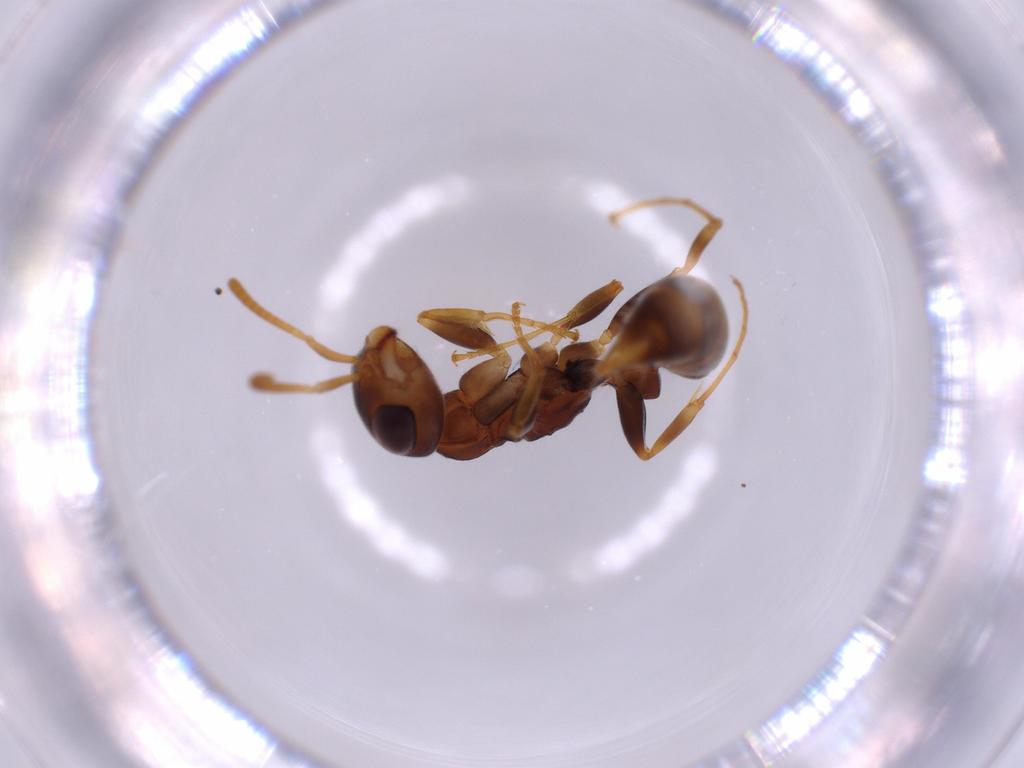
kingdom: Animalia
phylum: Arthropoda
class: Insecta
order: Hymenoptera
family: Formicidae
